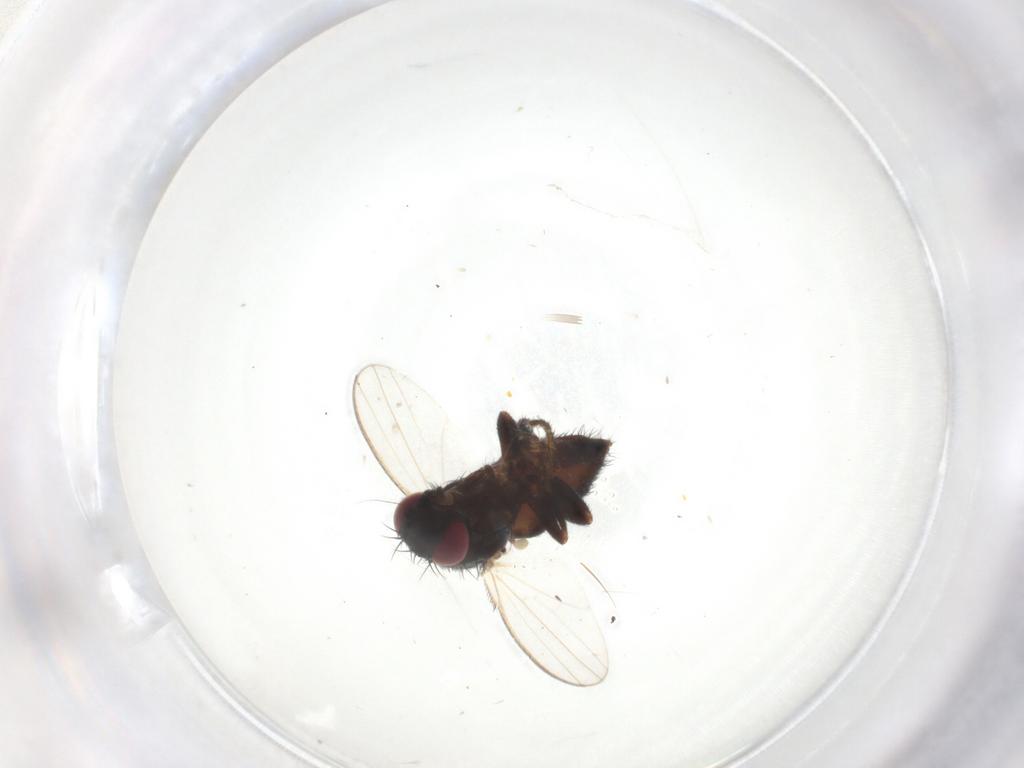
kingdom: Animalia
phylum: Arthropoda
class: Insecta
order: Diptera
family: Milichiidae
